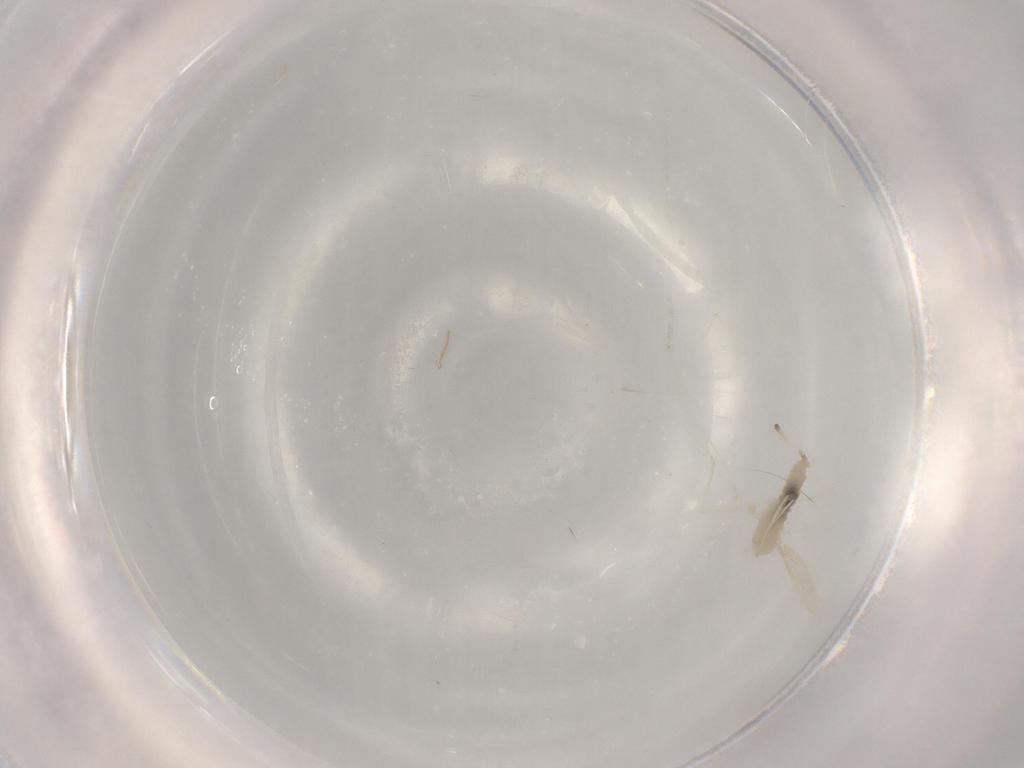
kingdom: Animalia
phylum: Arthropoda
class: Insecta
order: Diptera
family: Cecidomyiidae
